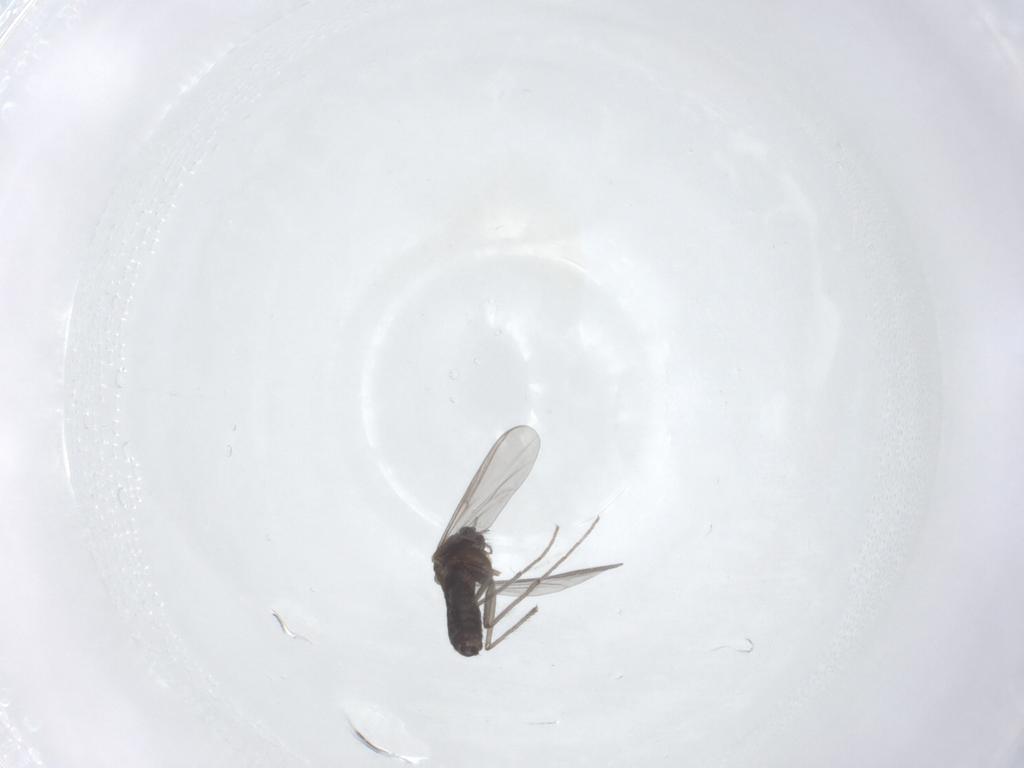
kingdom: Animalia
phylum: Arthropoda
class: Insecta
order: Diptera
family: Chironomidae
